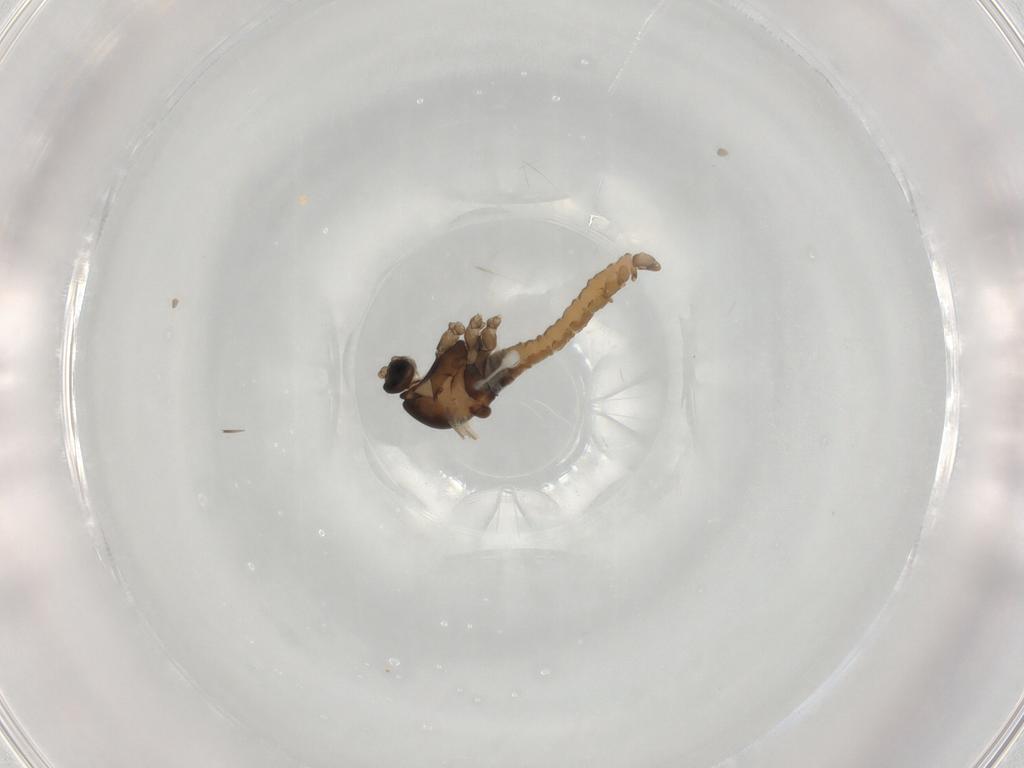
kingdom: Animalia
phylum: Arthropoda
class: Insecta
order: Diptera
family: Cecidomyiidae
